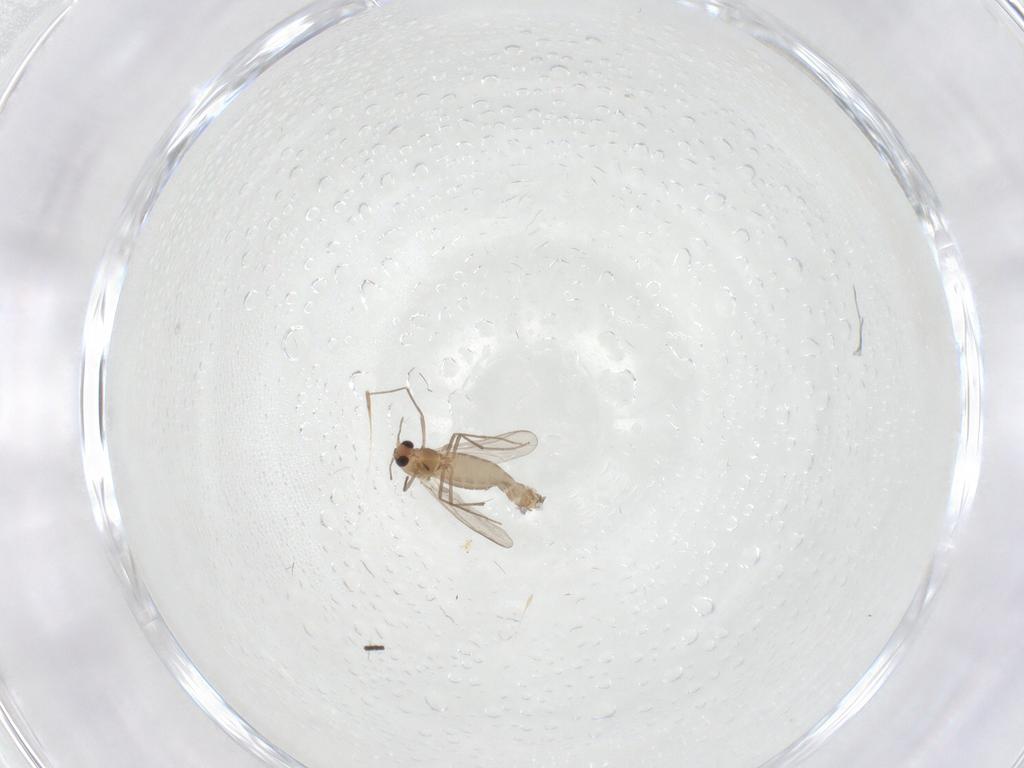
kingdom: Animalia
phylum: Arthropoda
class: Insecta
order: Diptera
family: Chironomidae
